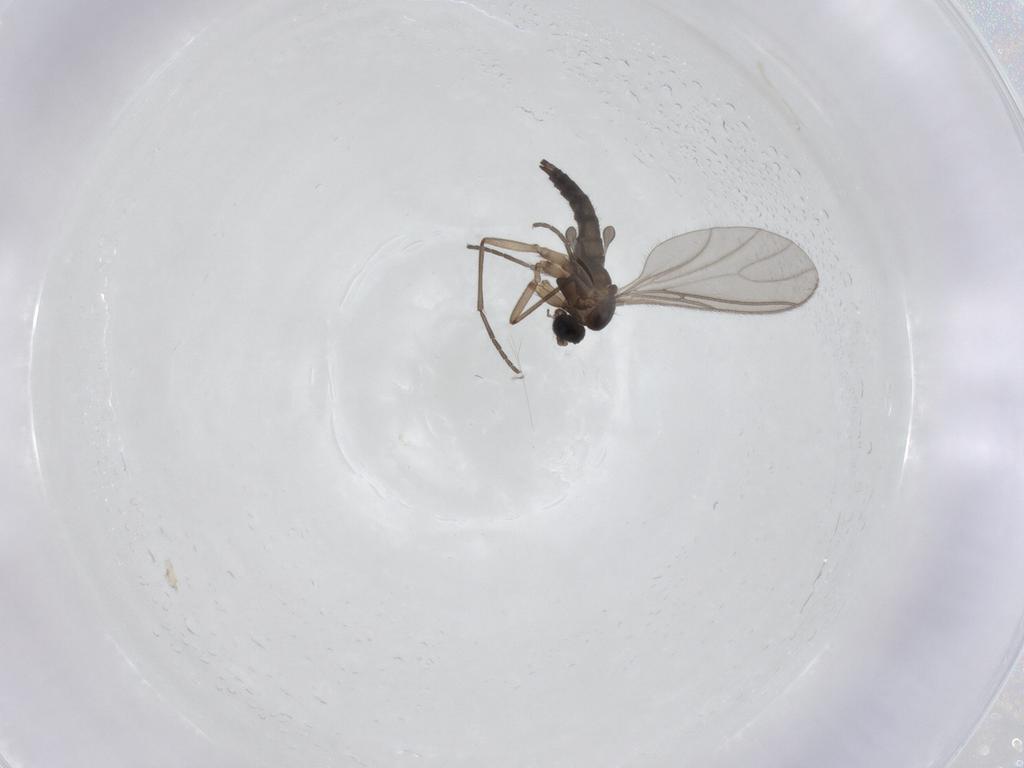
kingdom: Animalia
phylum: Arthropoda
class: Insecta
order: Diptera
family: Sciaridae
